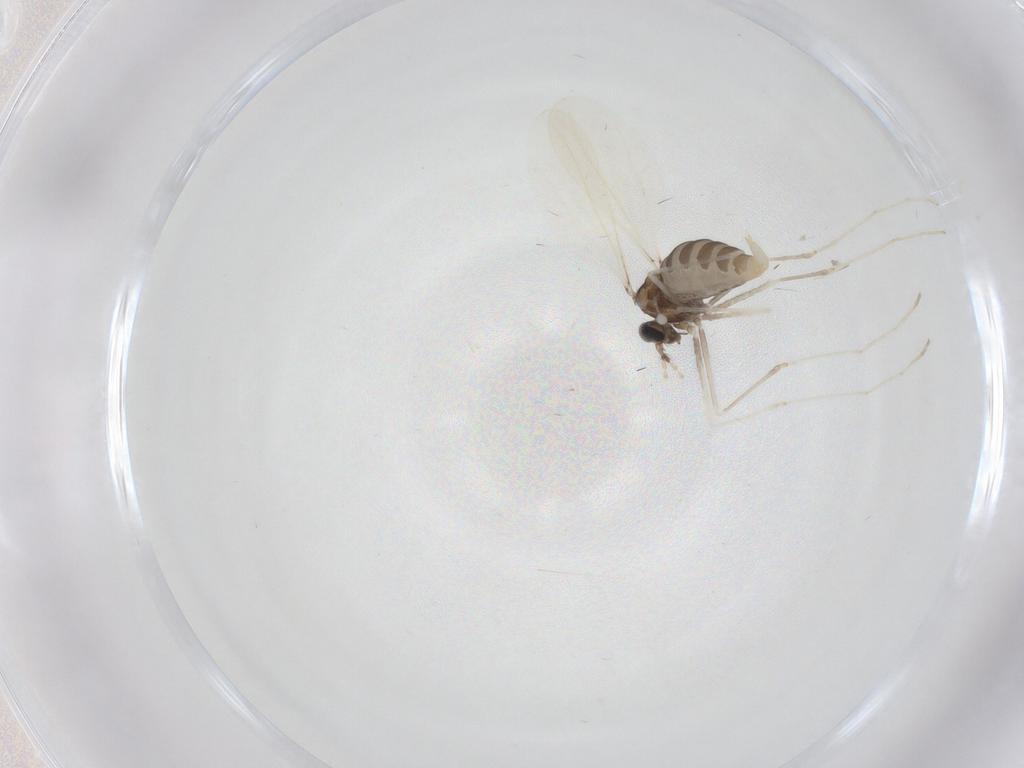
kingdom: Animalia
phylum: Arthropoda
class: Insecta
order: Diptera
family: Cecidomyiidae
